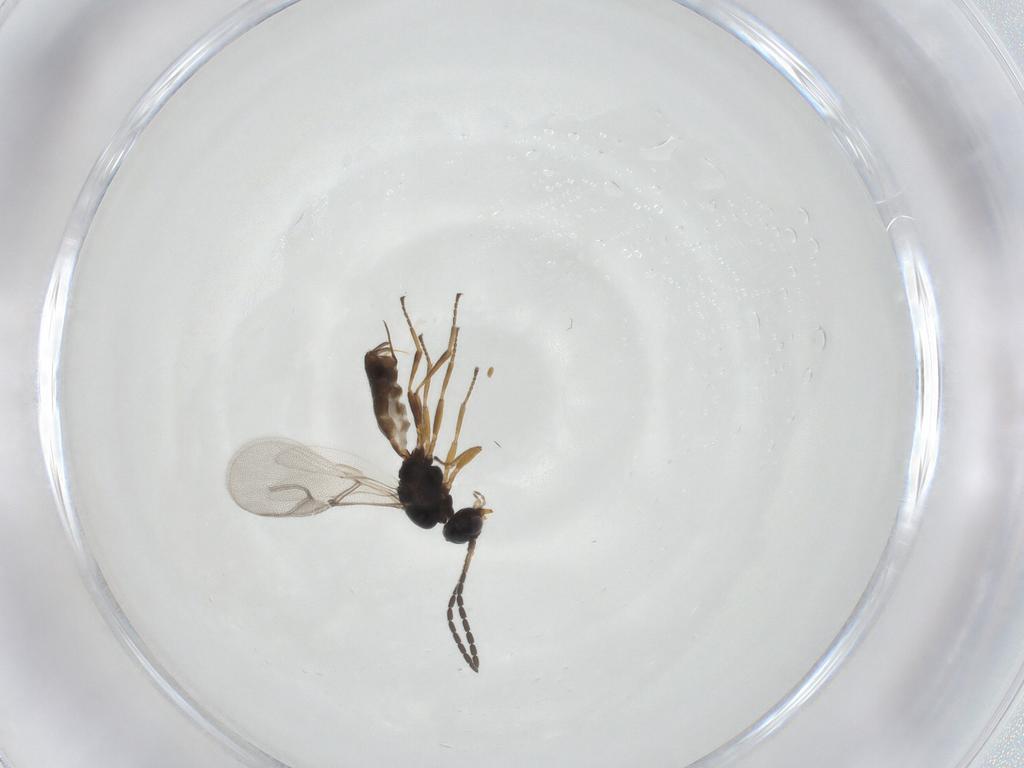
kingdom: Animalia
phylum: Arthropoda
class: Insecta
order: Hymenoptera
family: Braconidae
